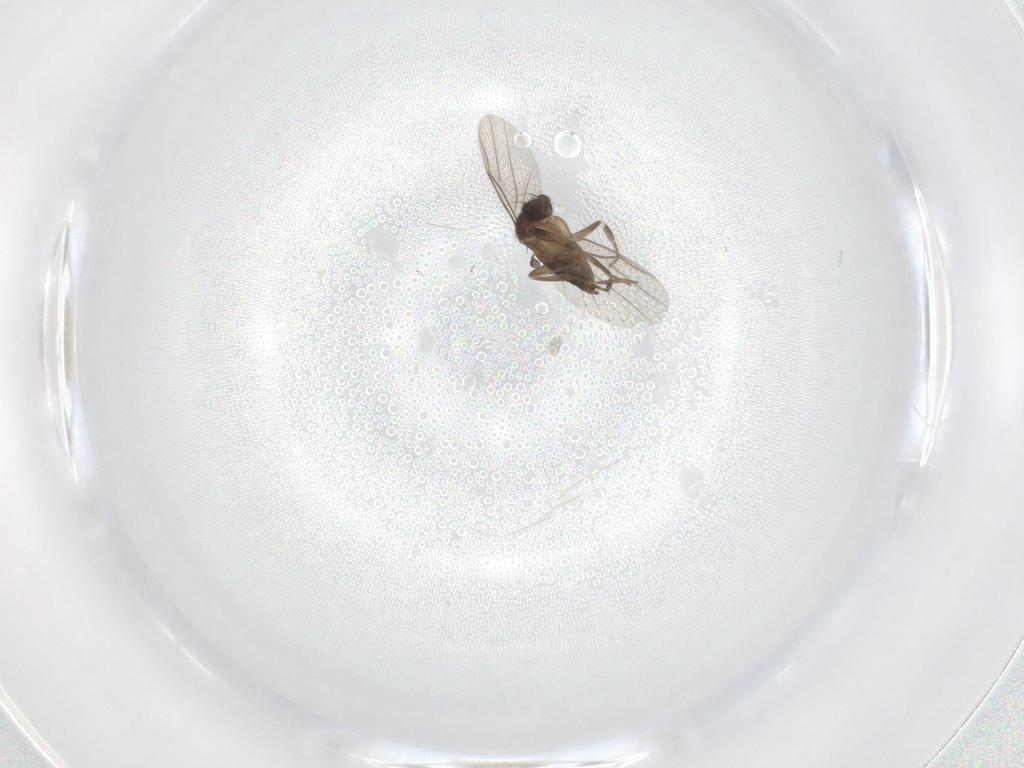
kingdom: Animalia
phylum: Arthropoda
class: Insecta
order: Diptera
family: Phoridae
